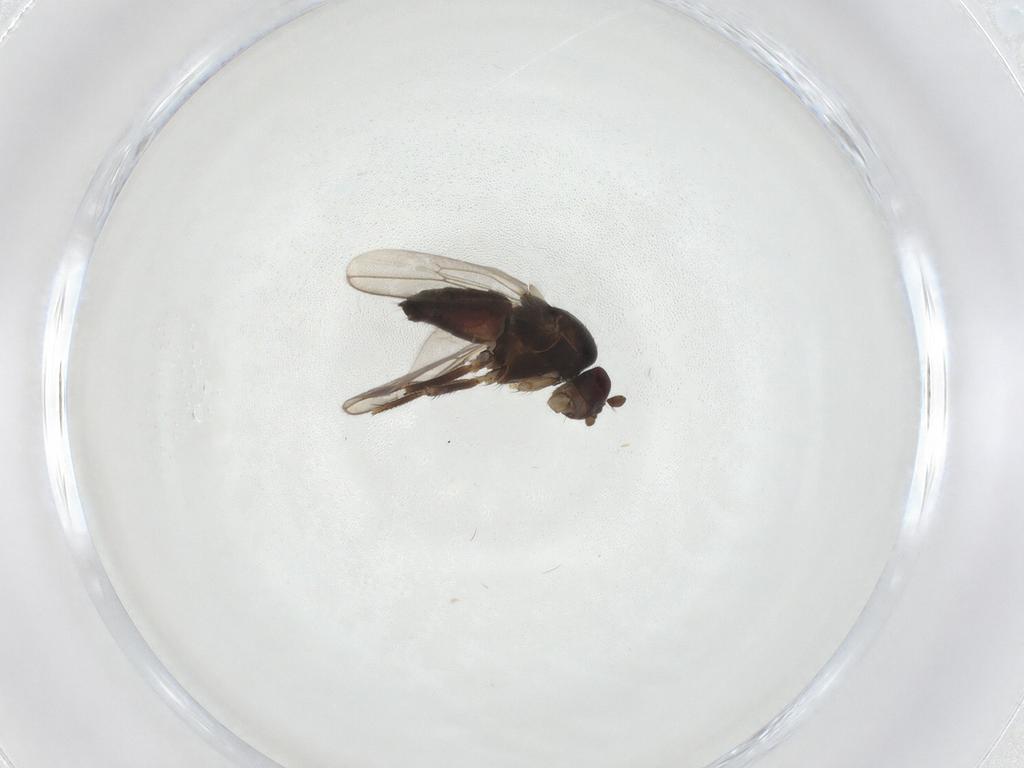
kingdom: Animalia
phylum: Arthropoda
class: Insecta
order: Diptera
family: Sphaeroceridae
